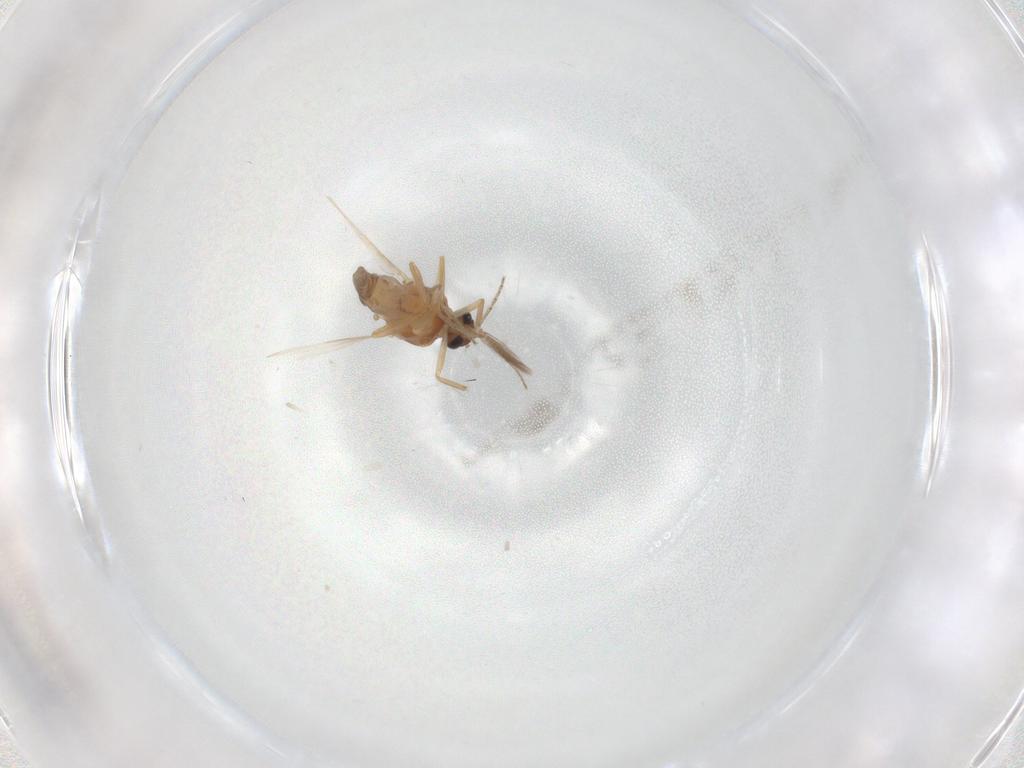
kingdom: Animalia
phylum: Arthropoda
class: Insecta
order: Diptera
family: Ceratopogonidae
